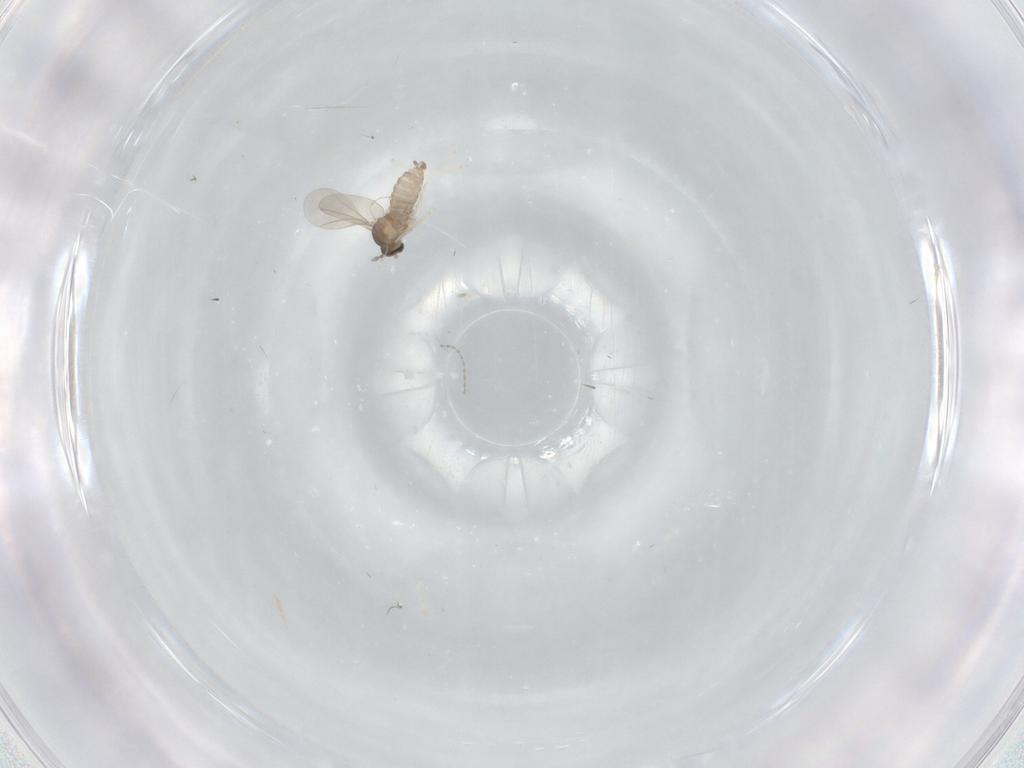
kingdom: Animalia
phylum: Arthropoda
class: Insecta
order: Diptera
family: Cecidomyiidae
